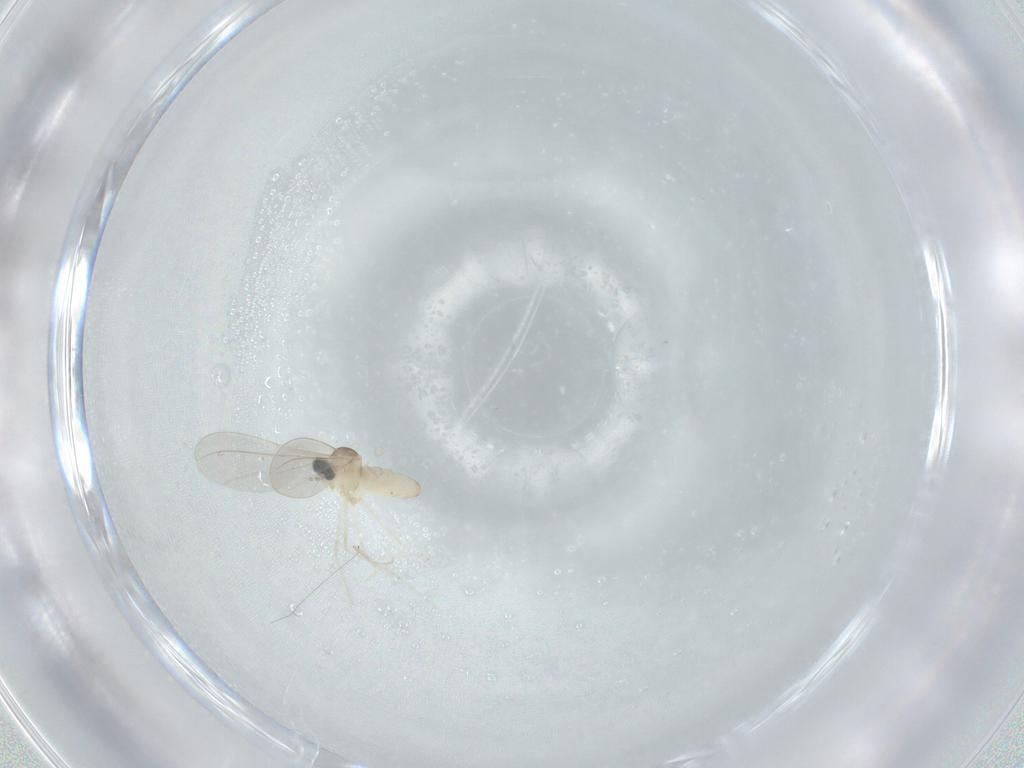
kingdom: Animalia
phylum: Arthropoda
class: Insecta
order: Diptera
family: Cecidomyiidae
